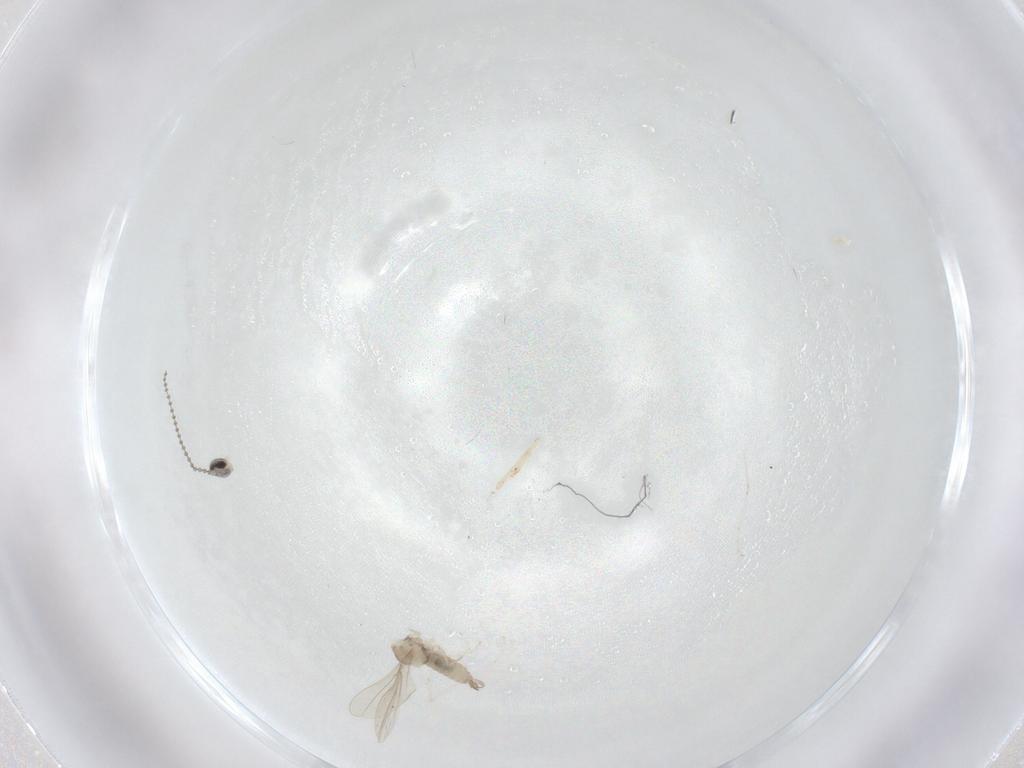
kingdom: Animalia
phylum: Arthropoda
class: Insecta
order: Diptera
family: Cecidomyiidae
